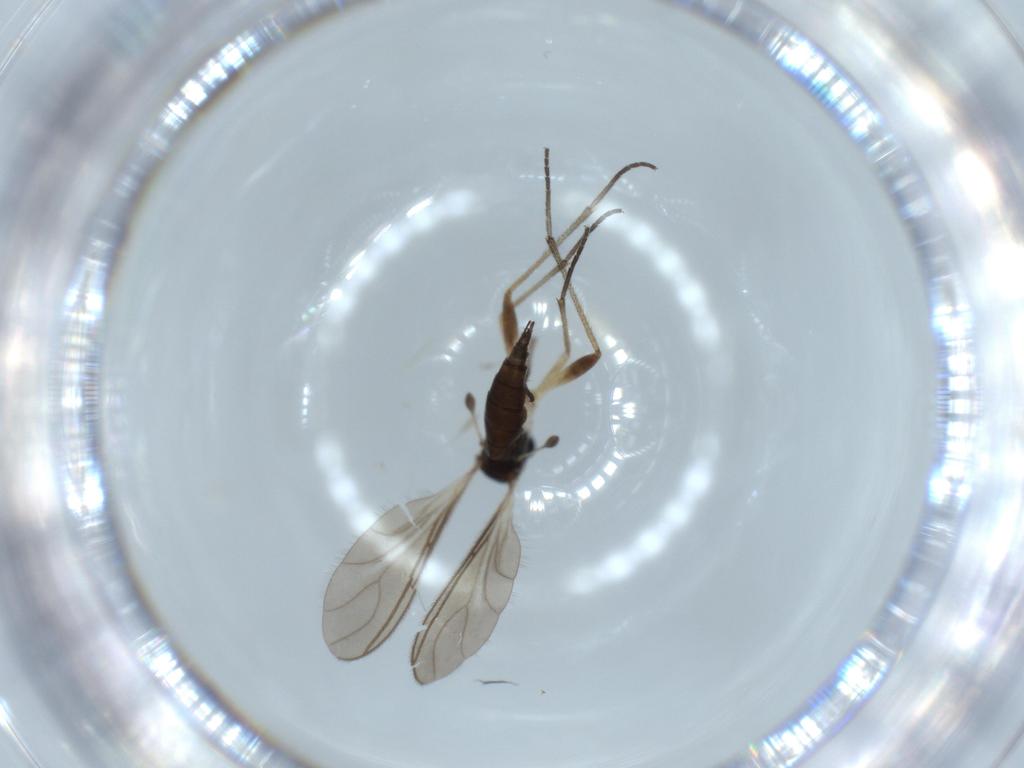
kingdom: Animalia
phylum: Arthropoda
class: Insecta
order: Diptera
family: Sciaridae
